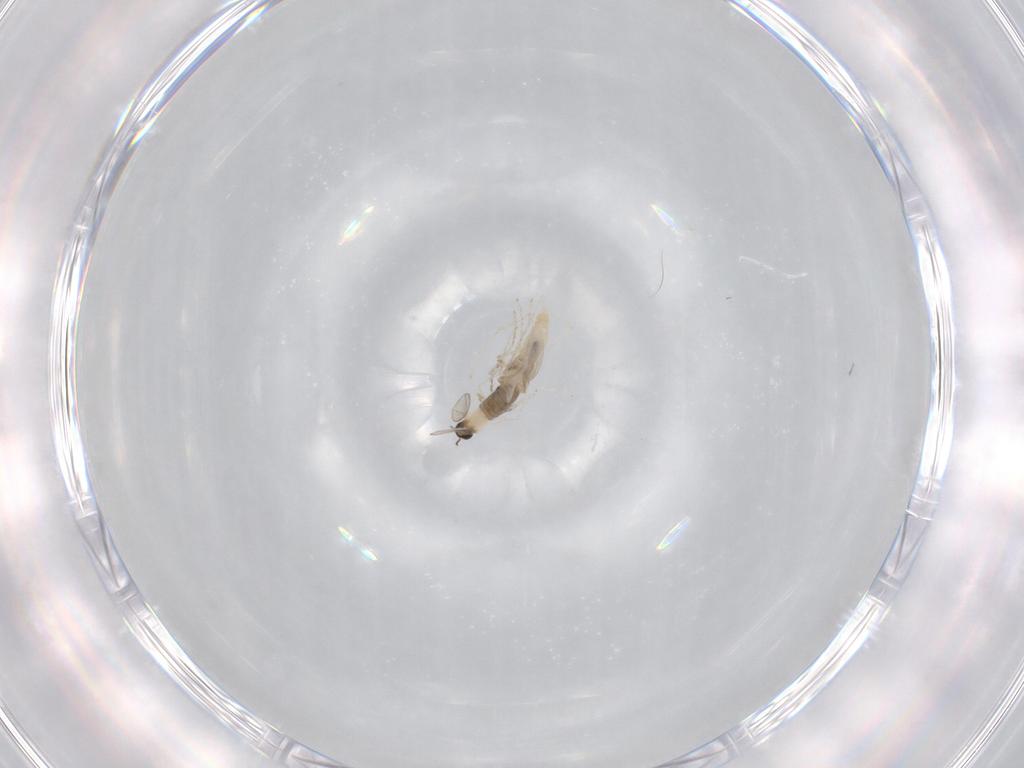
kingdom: Animalia
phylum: Arthropoda
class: Insecta
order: Diptera
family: Cecidomyiidae
